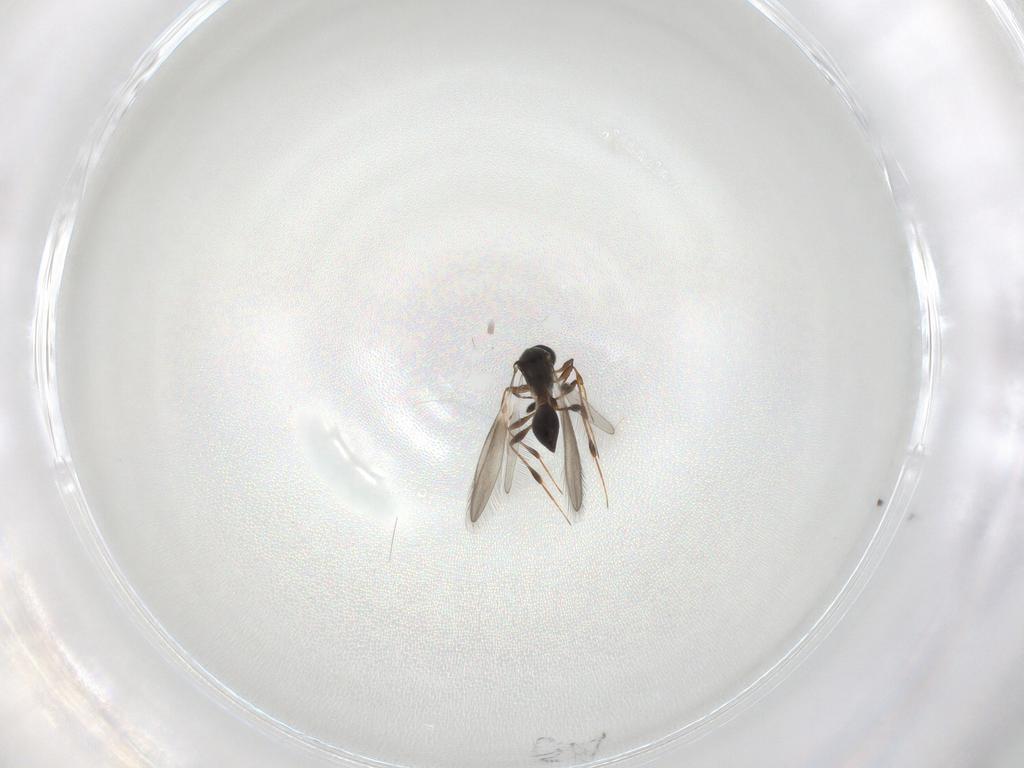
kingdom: Animalia
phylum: Arthropoda
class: Insecta
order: Hymenoptera
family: Platygastridae
